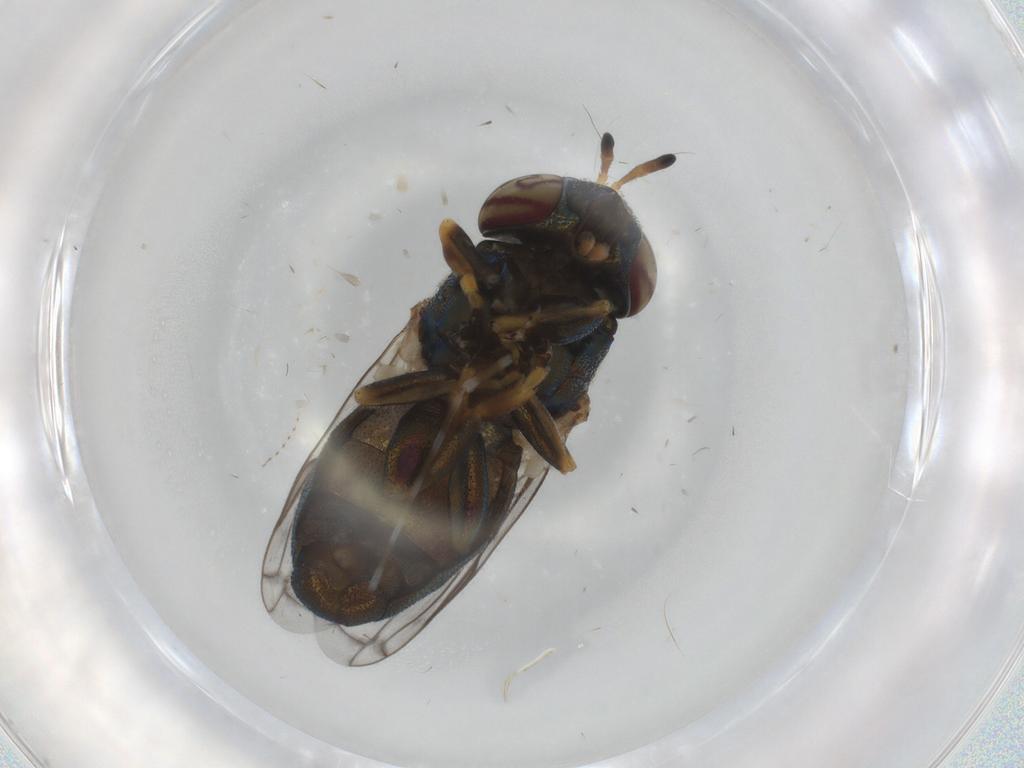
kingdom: Animalia
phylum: Arthropoda
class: Insecta
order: Diptera
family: Syrphidae
